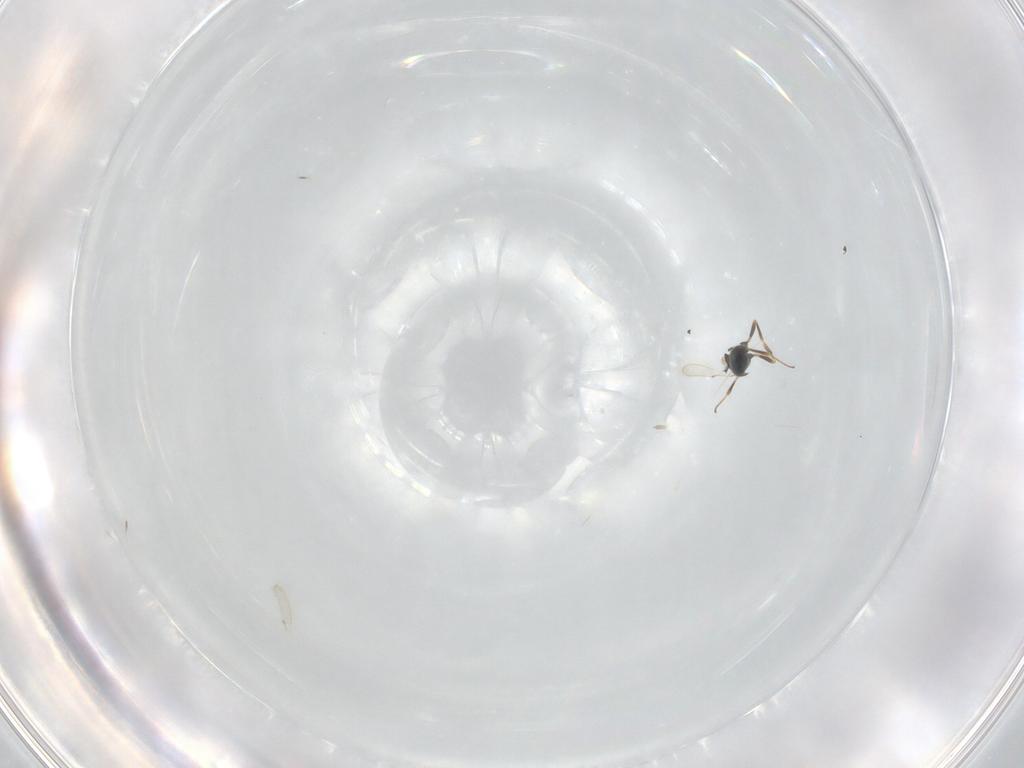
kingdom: Animalia
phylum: Arthropoda
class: Insecta
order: Hymenoptera
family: Scelionidae
